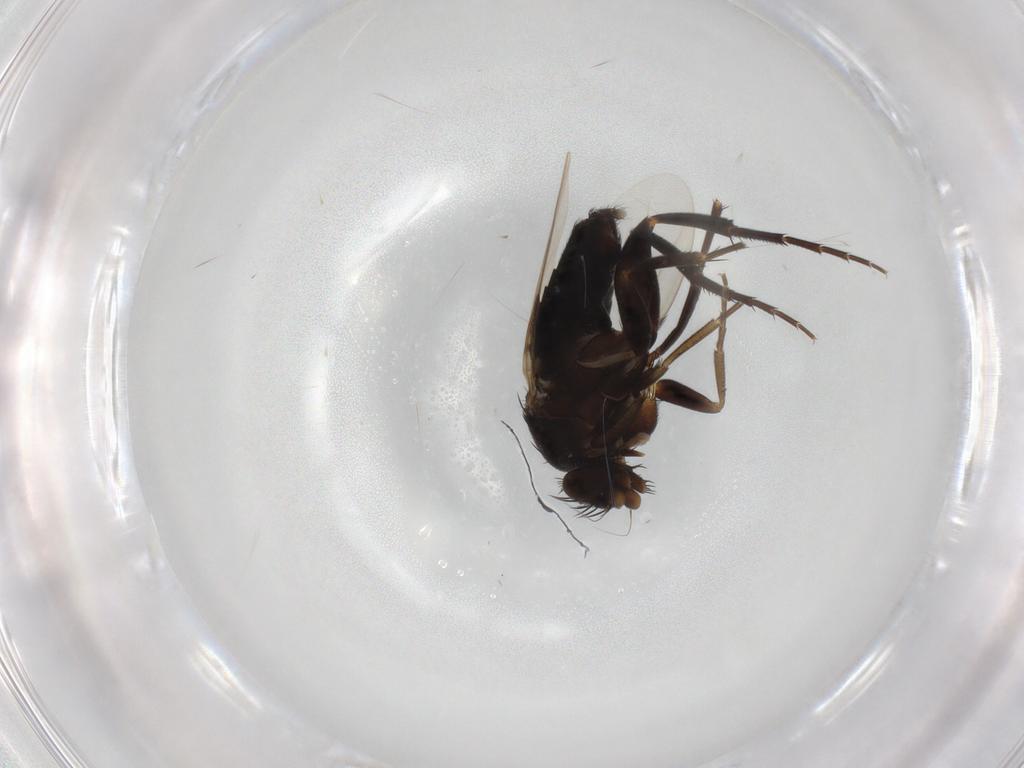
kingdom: Animalia
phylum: Arthropoda
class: Insecta
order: Diptera
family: Phoridae
